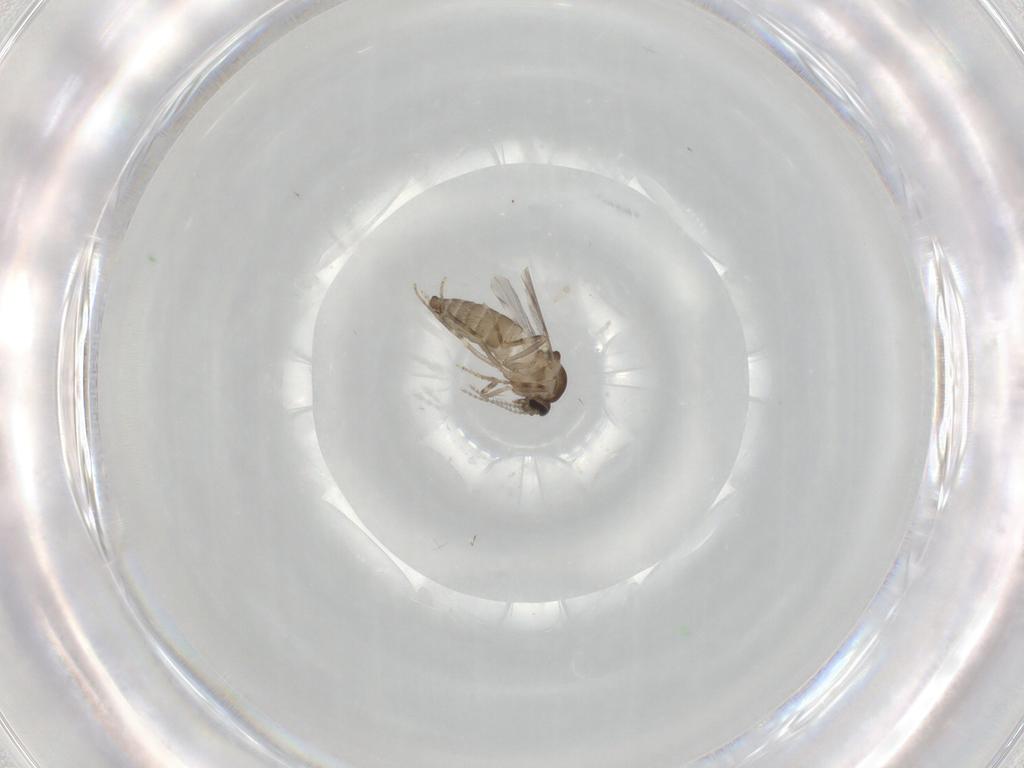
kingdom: Animalia
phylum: Arthropoda
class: Insecta
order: Diptera
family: Ceratopogonidae
